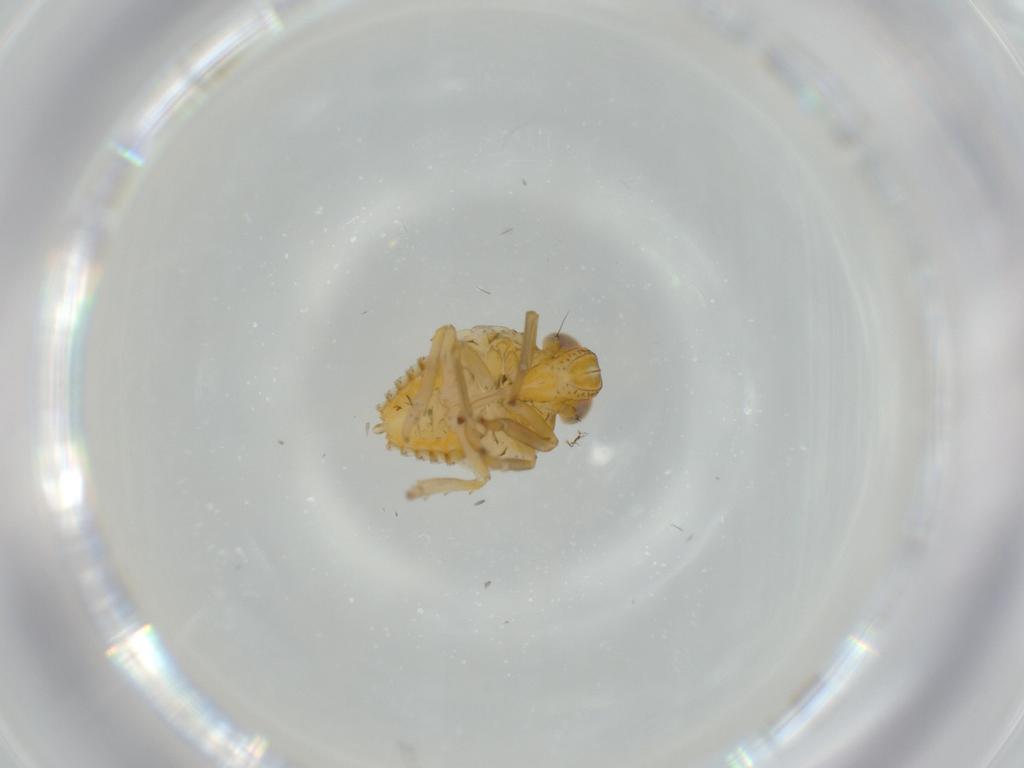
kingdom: Animalia
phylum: Arthropoda
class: Insecta
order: Hemiptera
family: Issidae
